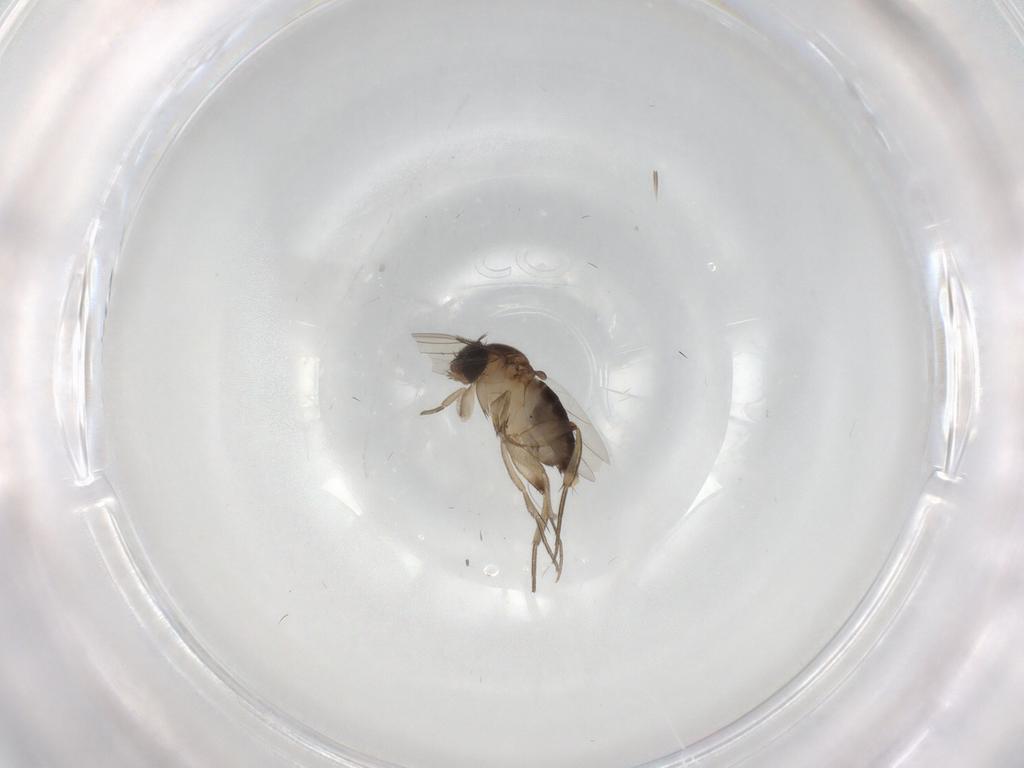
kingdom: Animalia
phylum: Arthropoda
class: Insecta
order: Diptera
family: Phoridae
